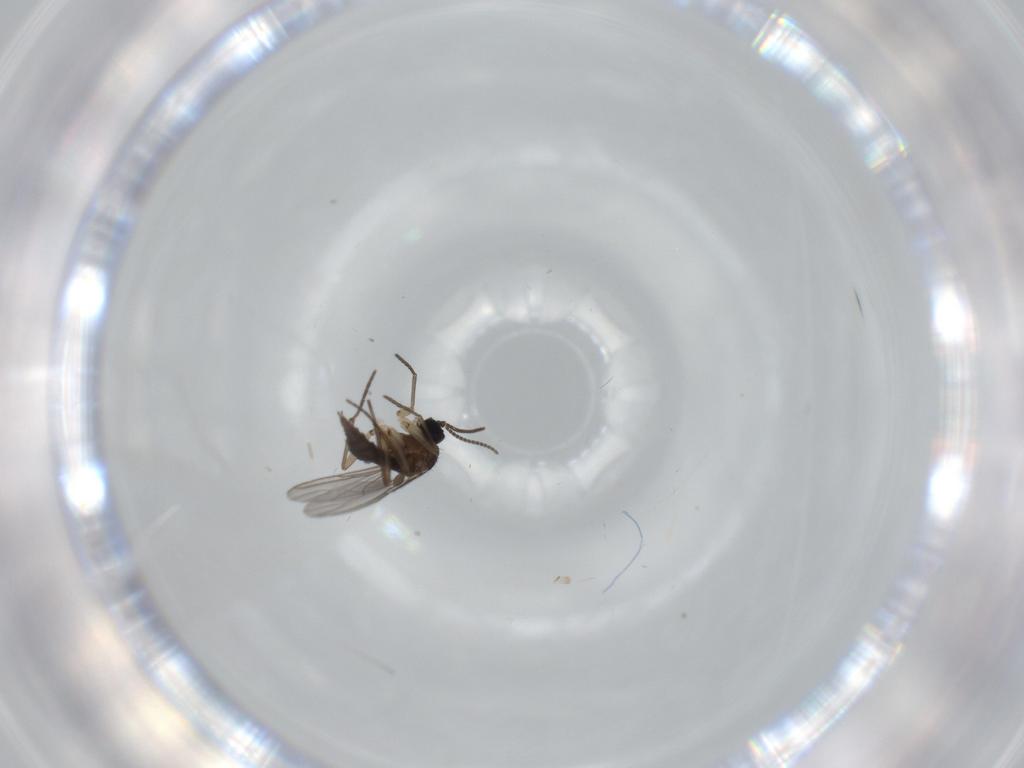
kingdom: Animalia
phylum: Arthropoda
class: Insecta
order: Diptera
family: Sciaridae
